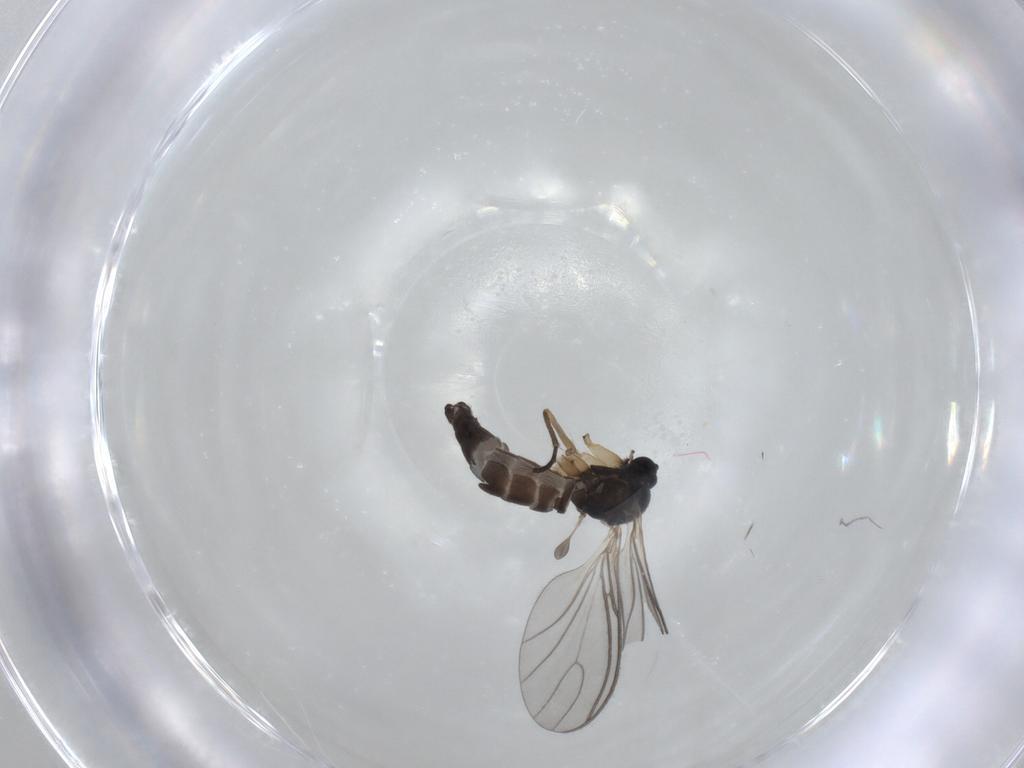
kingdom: Animalia
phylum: Arthropoda
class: Insecta
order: Diptera
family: Sciaridae
